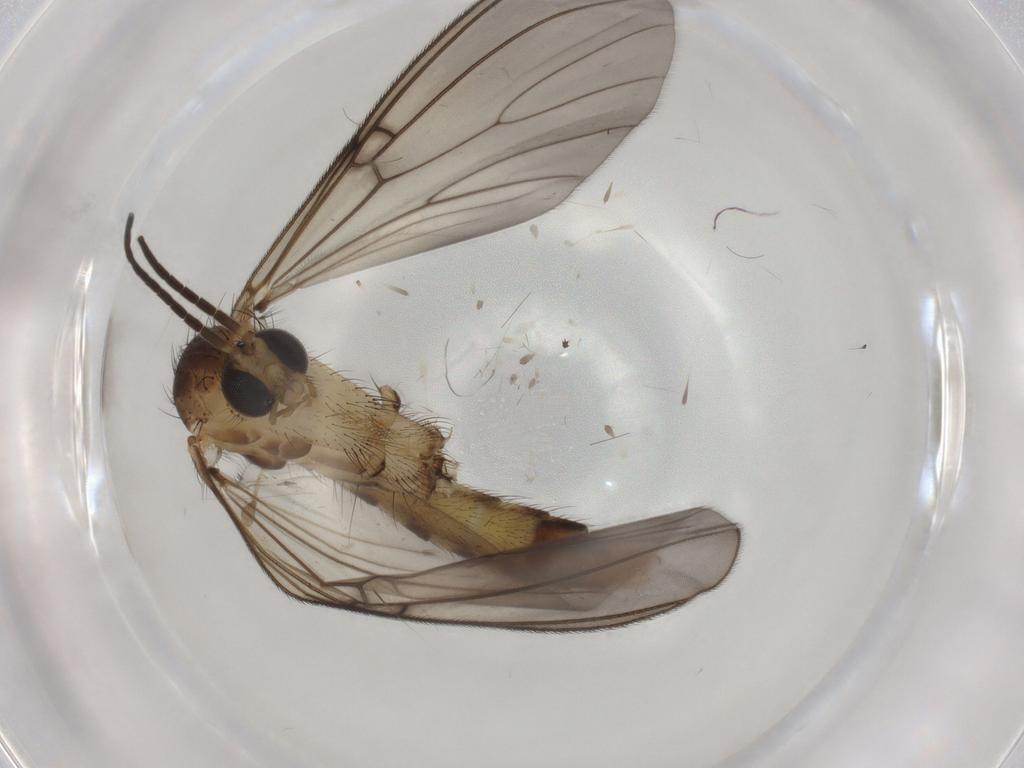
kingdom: Animalia
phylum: Arthropoda
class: Insecta
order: Diptera
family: Mycetophilidae
